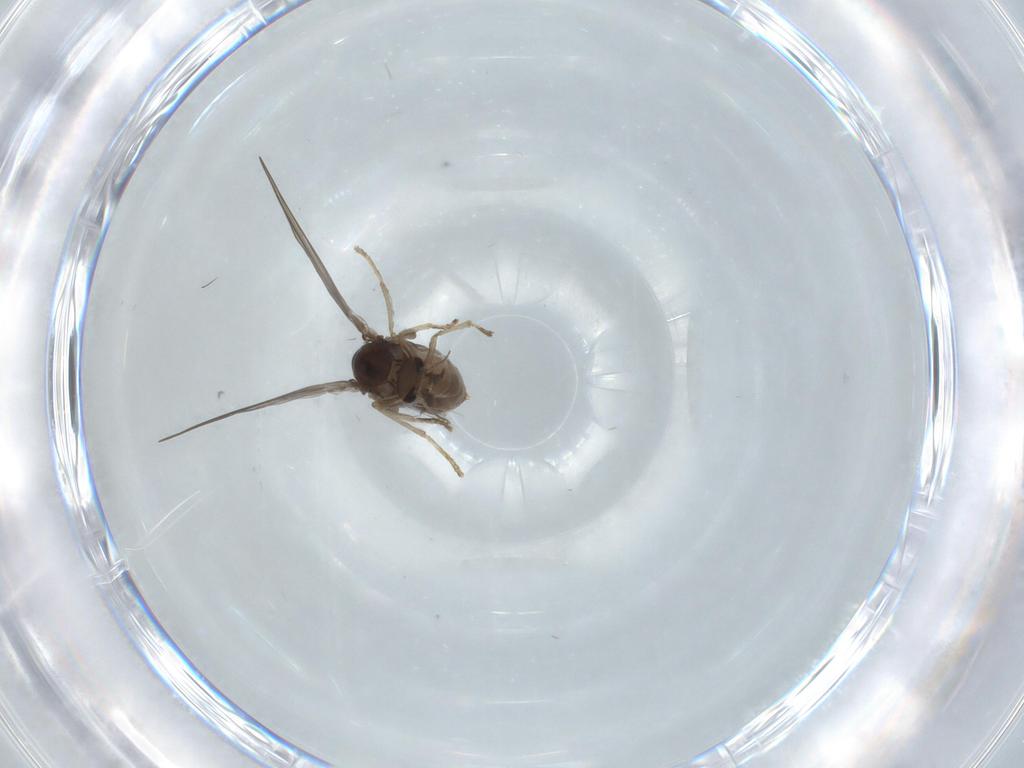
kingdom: Animalia
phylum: Arthropoda
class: Insecta
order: Diptera
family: Psychodidae
